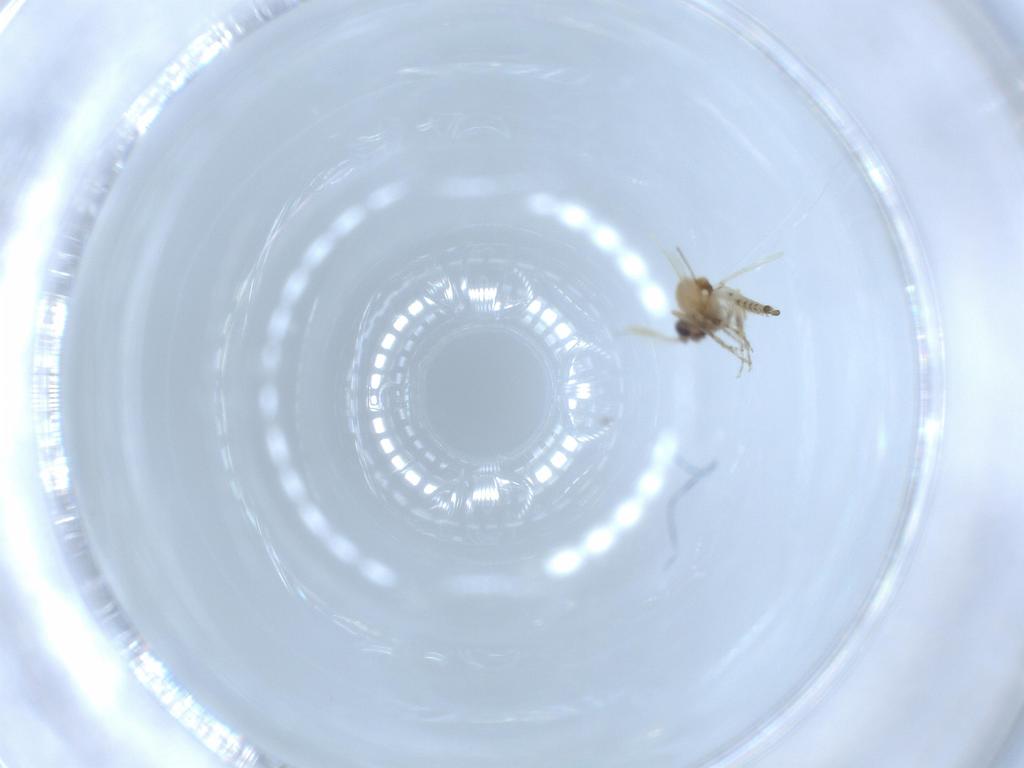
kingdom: Animalia
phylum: Arthropoda
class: Insecta
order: Diptera
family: Ceratopogonidae
